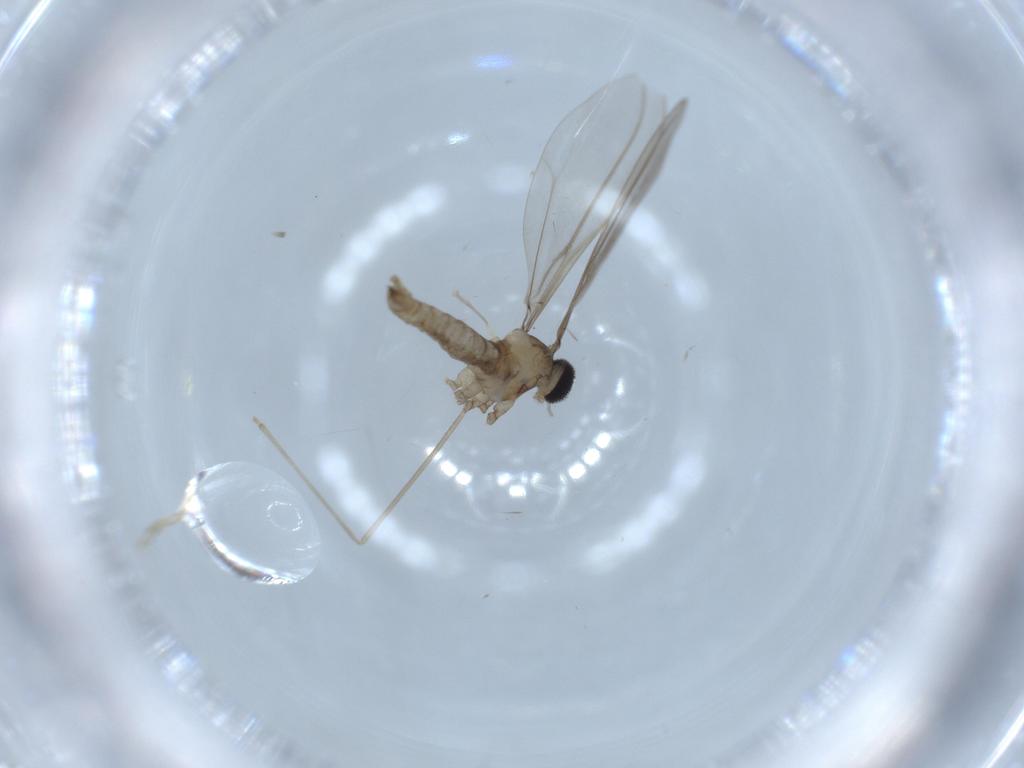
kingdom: Animalia
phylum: Arthropoda
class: Insecta
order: Diptera
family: Cecidomyiidae
